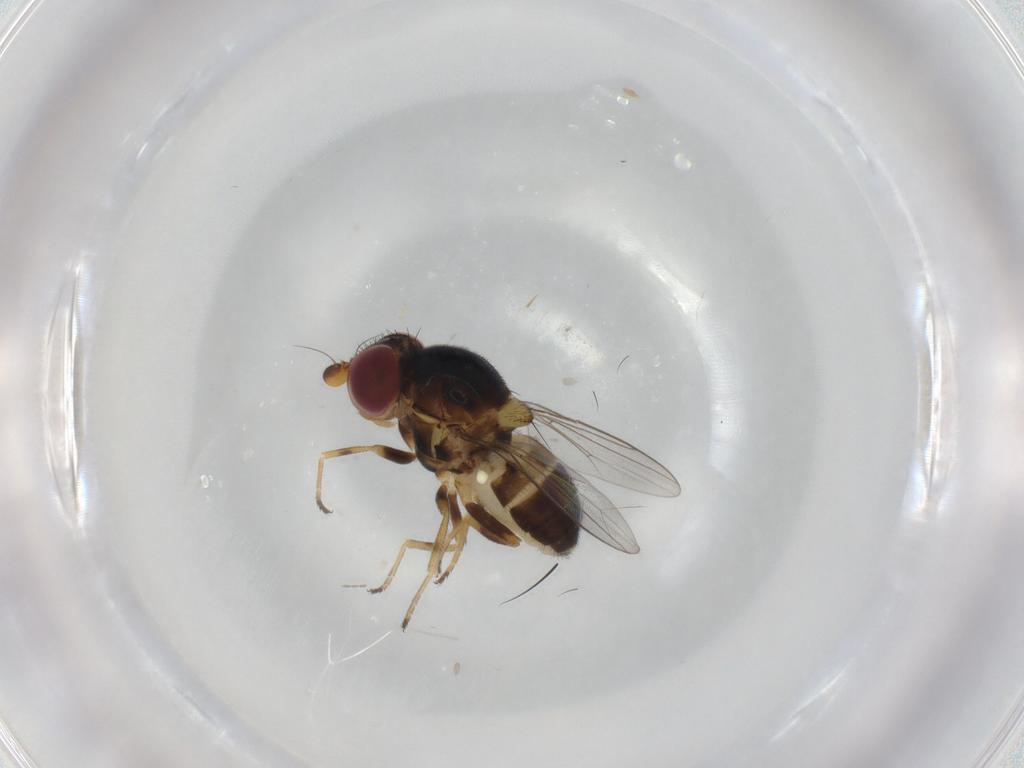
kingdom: Animalia
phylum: Arthropoda
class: Insecta
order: Diptera
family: Chloropidae
